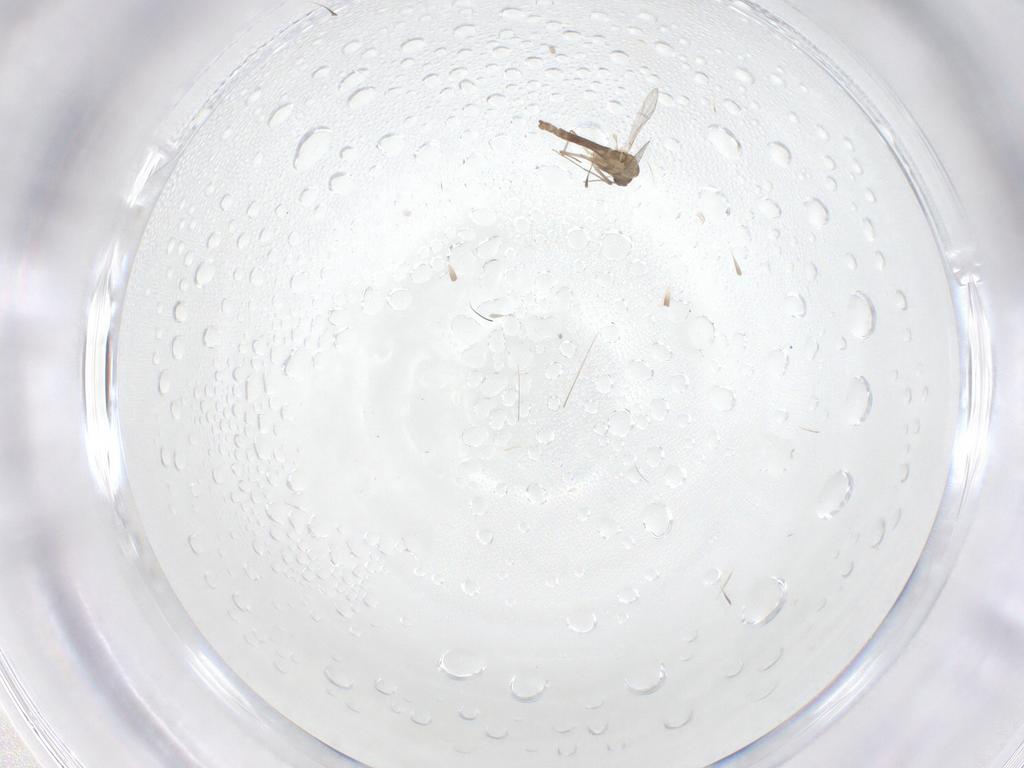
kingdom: Animalia
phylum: Arthropoda
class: Insecta
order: Diptera
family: Chironomidae
